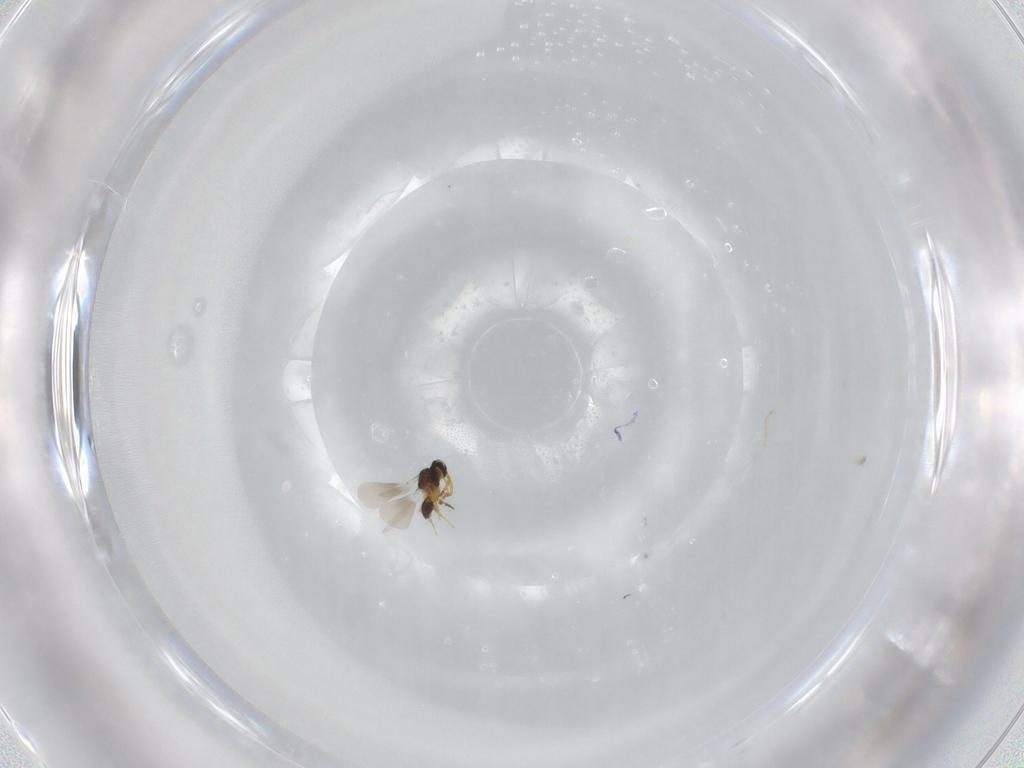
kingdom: Animalia
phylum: Arthropoda
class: Insecta
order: Hymenoptera
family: Platygastridae
